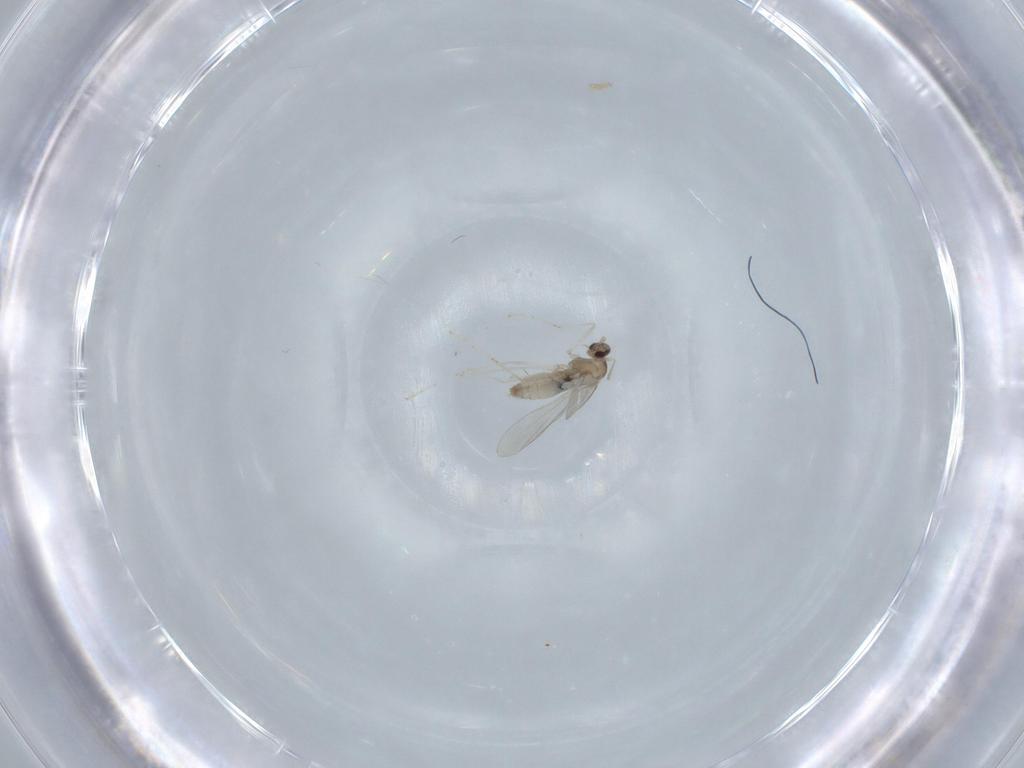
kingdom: Animalia
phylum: Arthropoda
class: Insecta
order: Diptera
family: Cecidomyiidae
